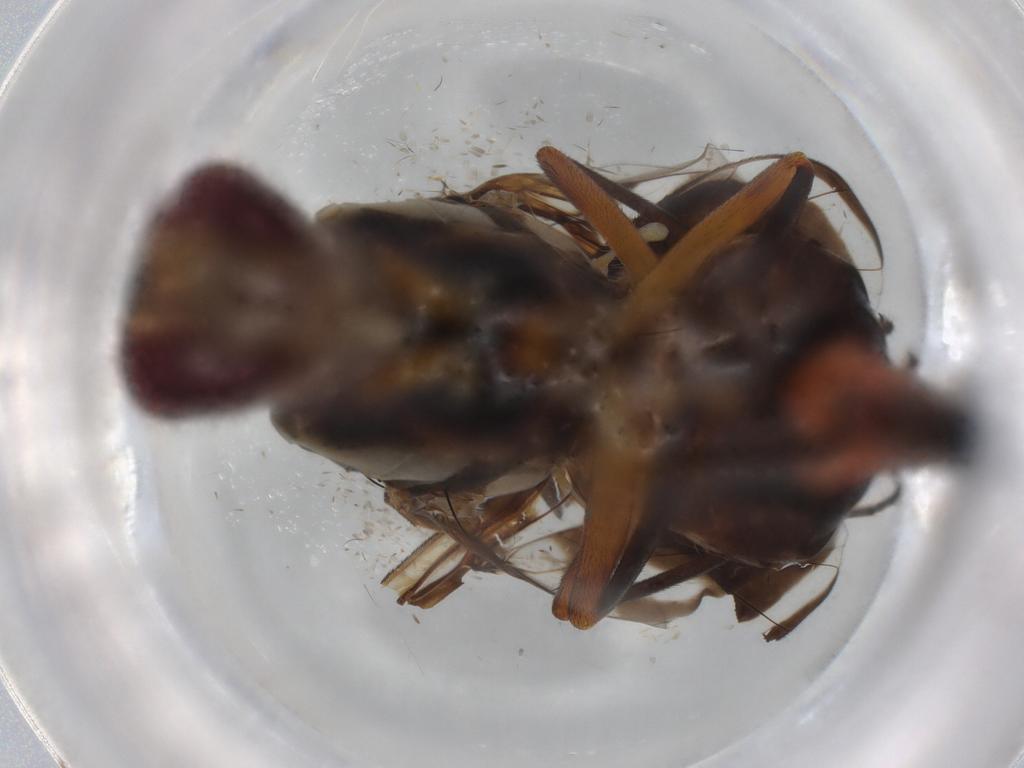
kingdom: Animalia
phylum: Arthropoda
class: Insecta
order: Diptera
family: Tephritidae
